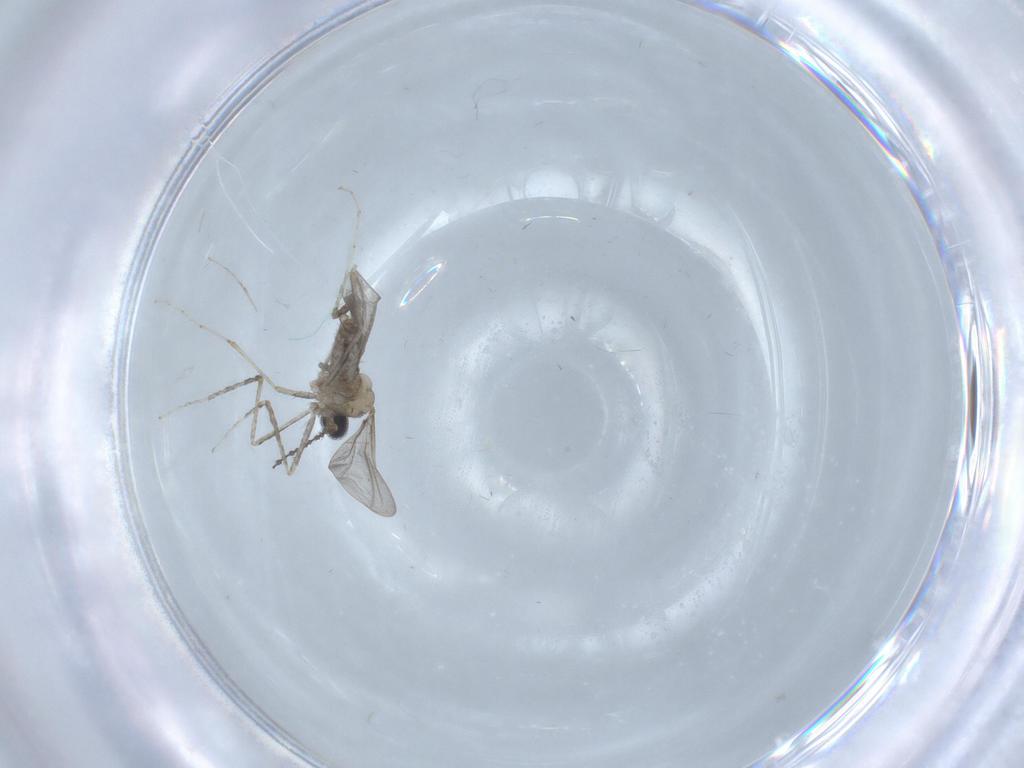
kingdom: Animalia
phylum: Arthropoda
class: Insecta
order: Diptera
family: Cecidomyiidae
